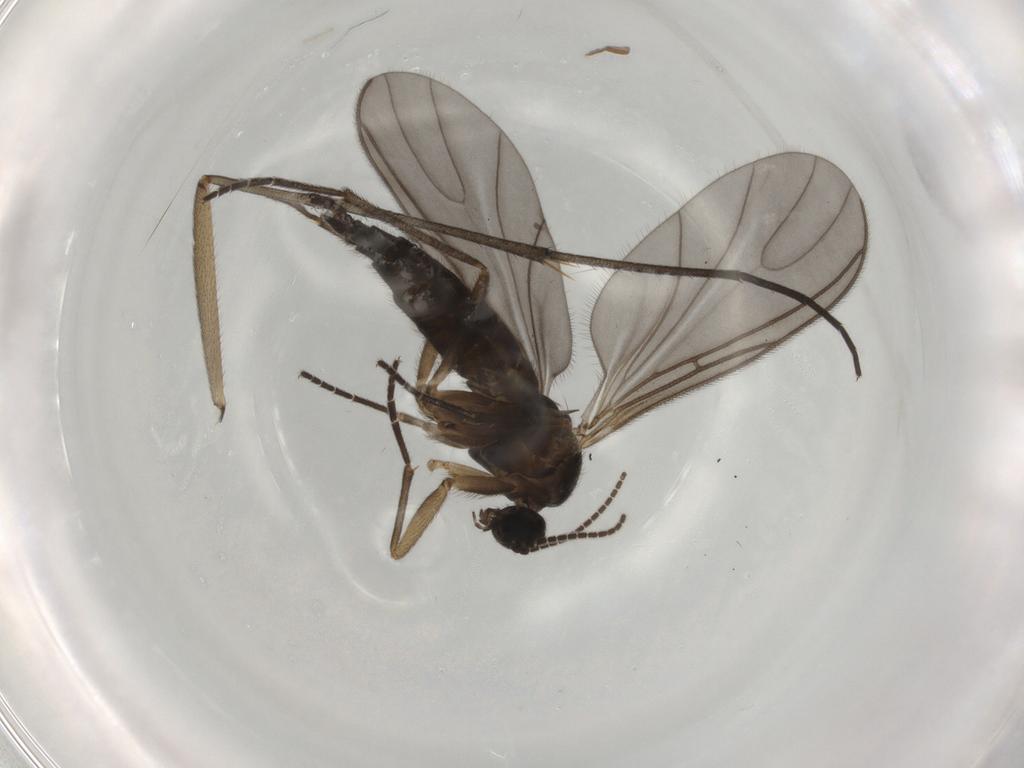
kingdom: Animalia
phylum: Arthropoda
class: Insecta
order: Diptera
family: Sciaridae
